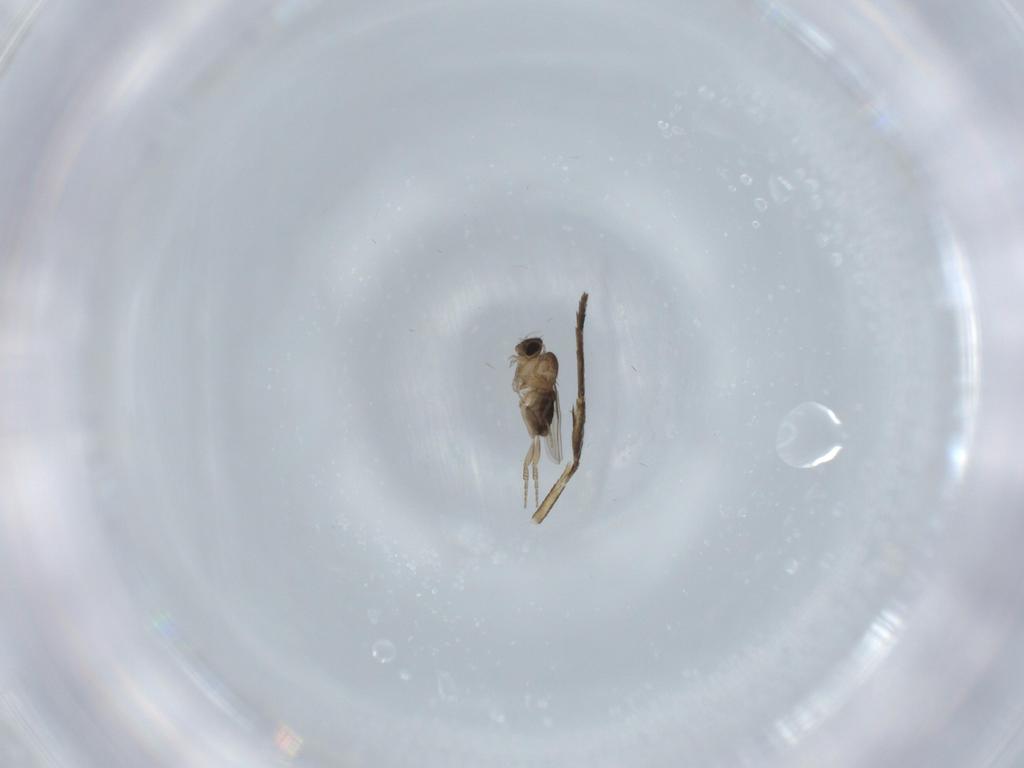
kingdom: Animalia
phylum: Arthropoda
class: Insecta
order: Diptera
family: Phoridae
